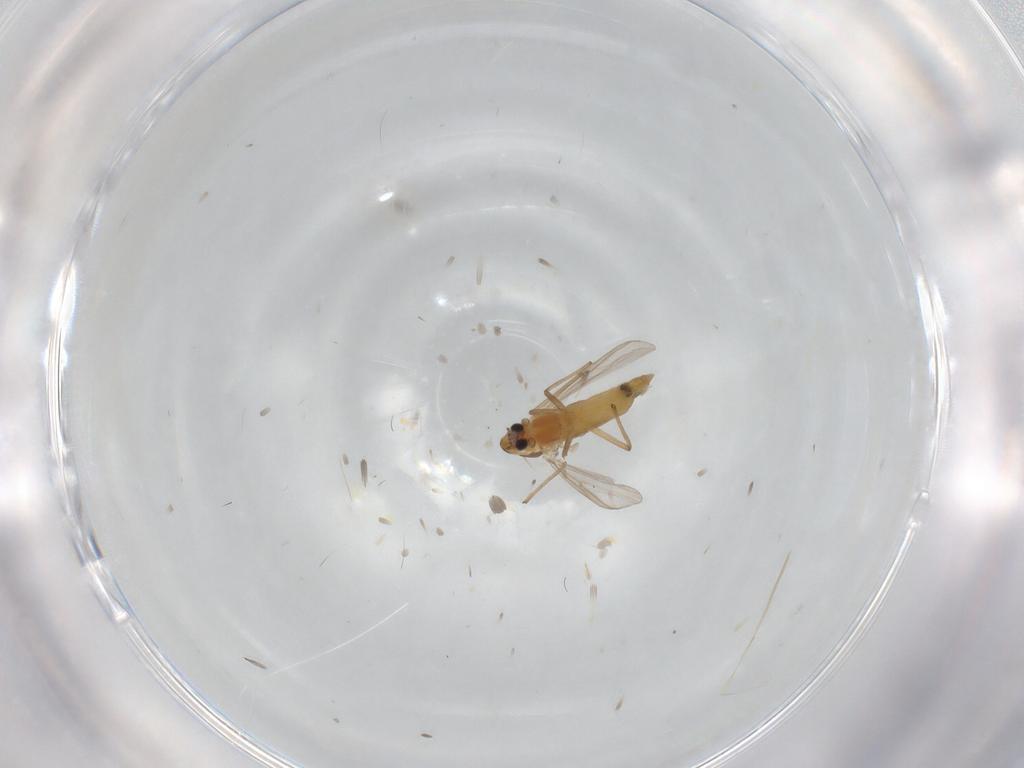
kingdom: Animalia
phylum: Arthropoda
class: Insecta
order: Diptera
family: Chironomidae
